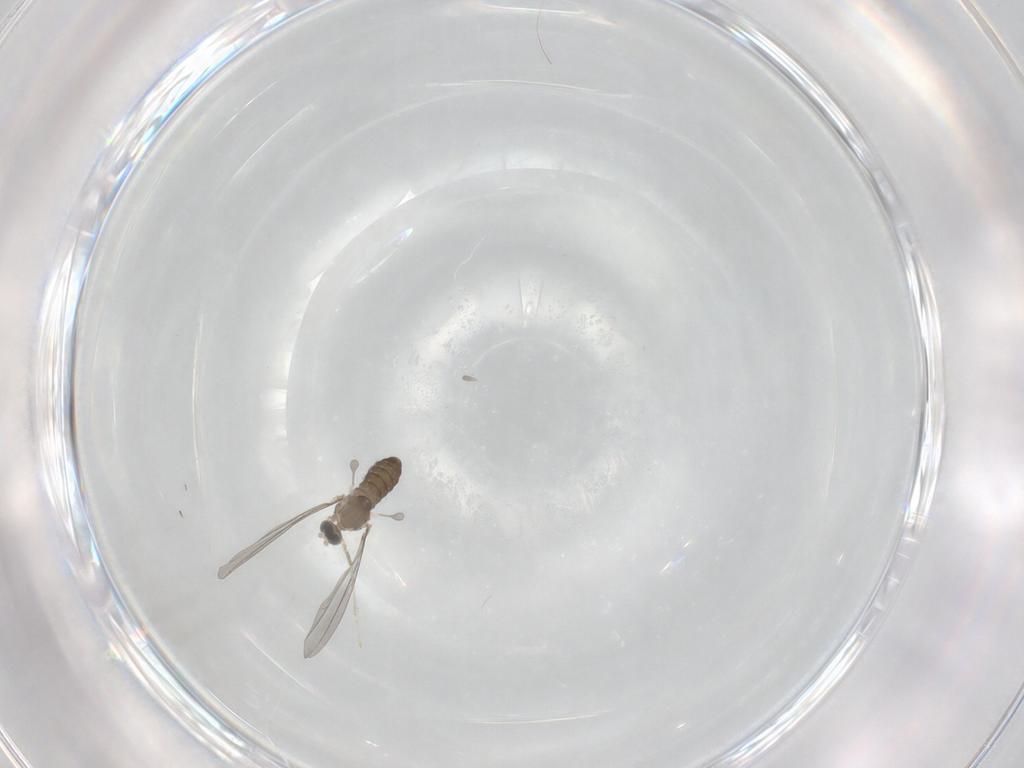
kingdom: Animalia
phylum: Arthropoda
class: Insecta
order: Diptera
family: Cecidomyiidae
